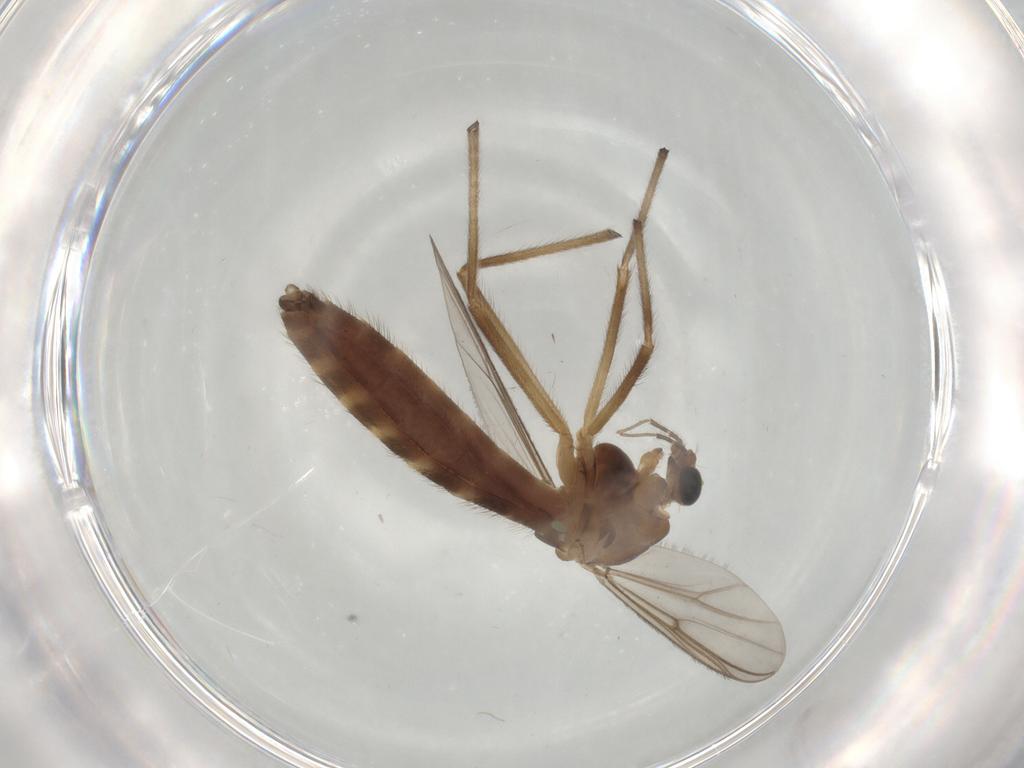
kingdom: Animalia
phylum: Arthropoda
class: Insecta
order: Diptera
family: Chironomidae
